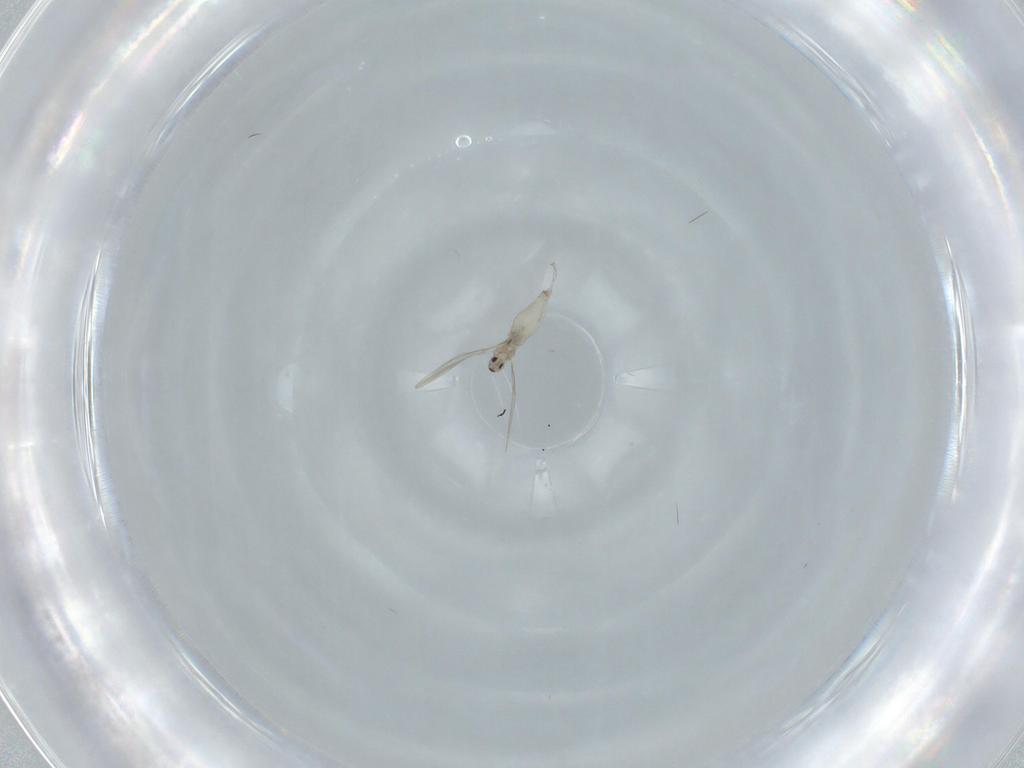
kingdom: Animalia
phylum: Arthropoda
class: Insecta
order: Diptera
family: Cecidomyiidae
